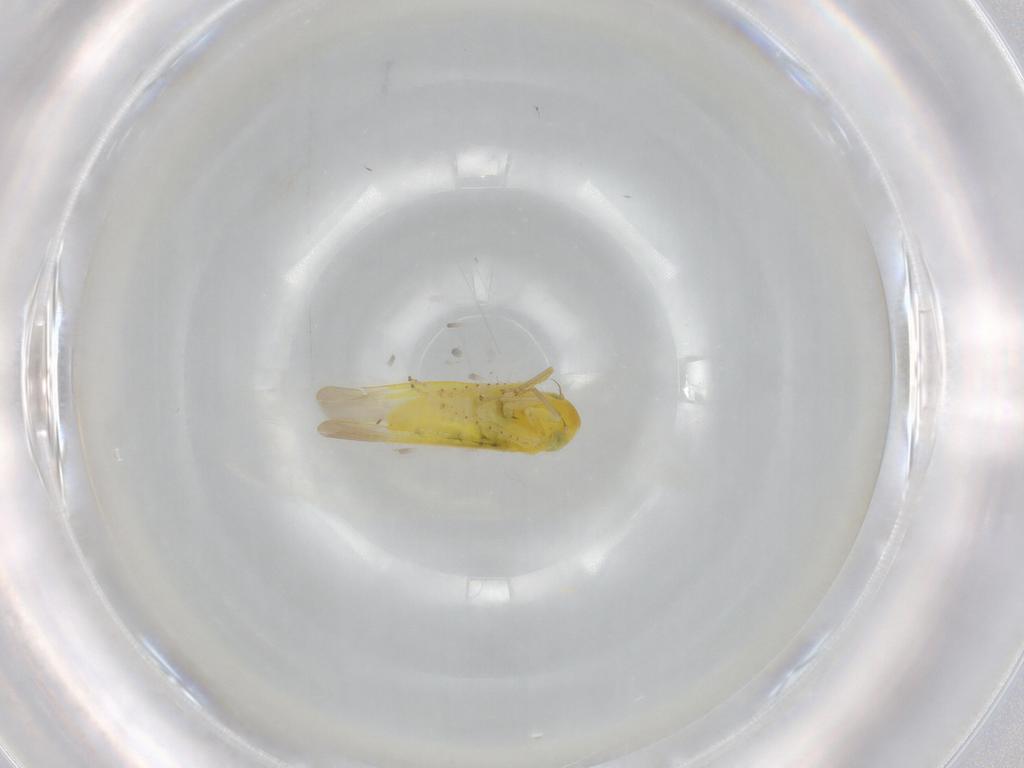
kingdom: Animalia
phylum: Arthropoda
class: Insecta
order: Hemiptera
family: Cicadellidae
